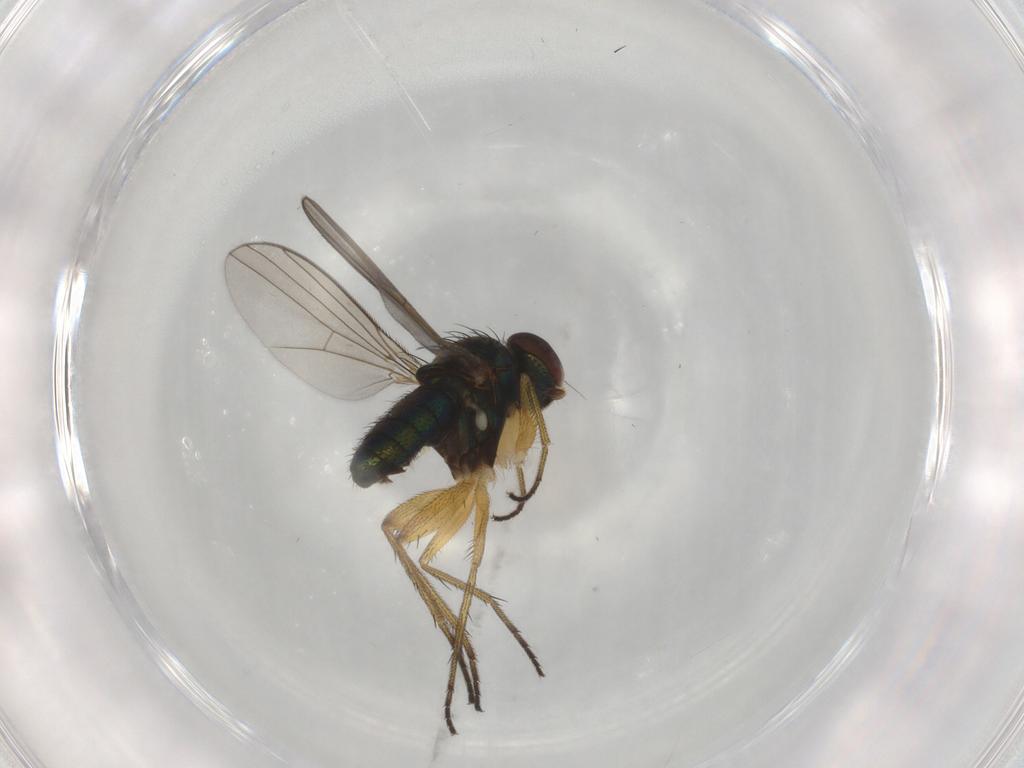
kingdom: Animalia
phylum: Arthropoda
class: Insecta
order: Diptera
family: Dolichopodidae
